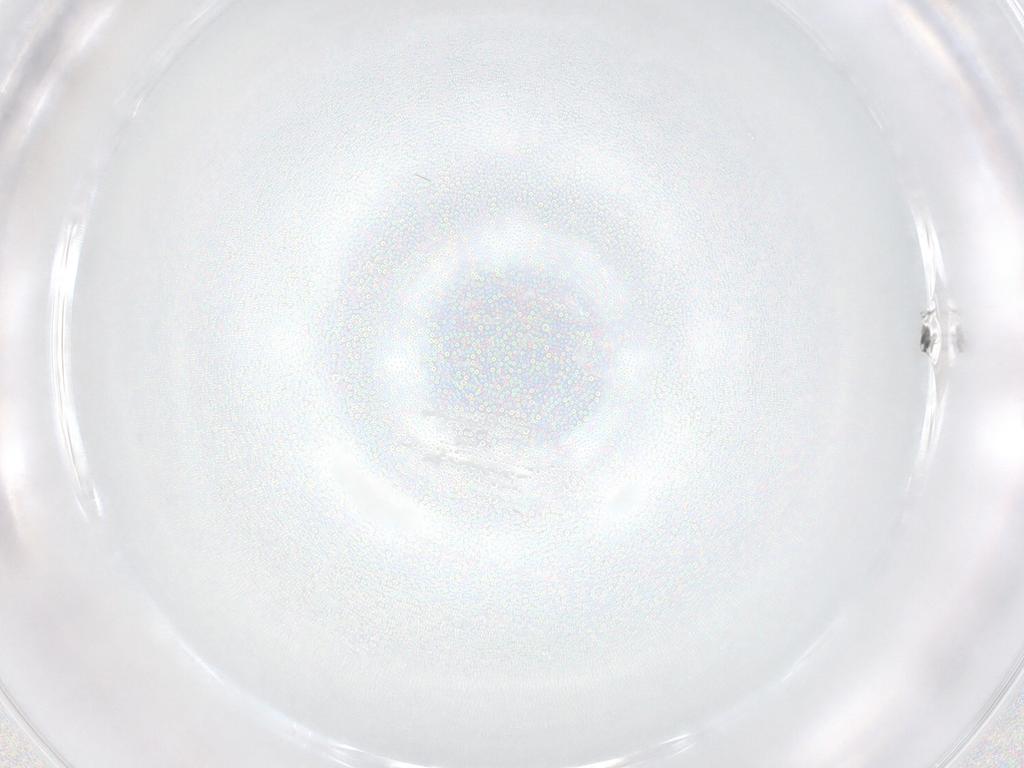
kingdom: Animalia
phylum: Arthropoda
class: Insecta
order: Hymenoptera
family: Eulophidae
